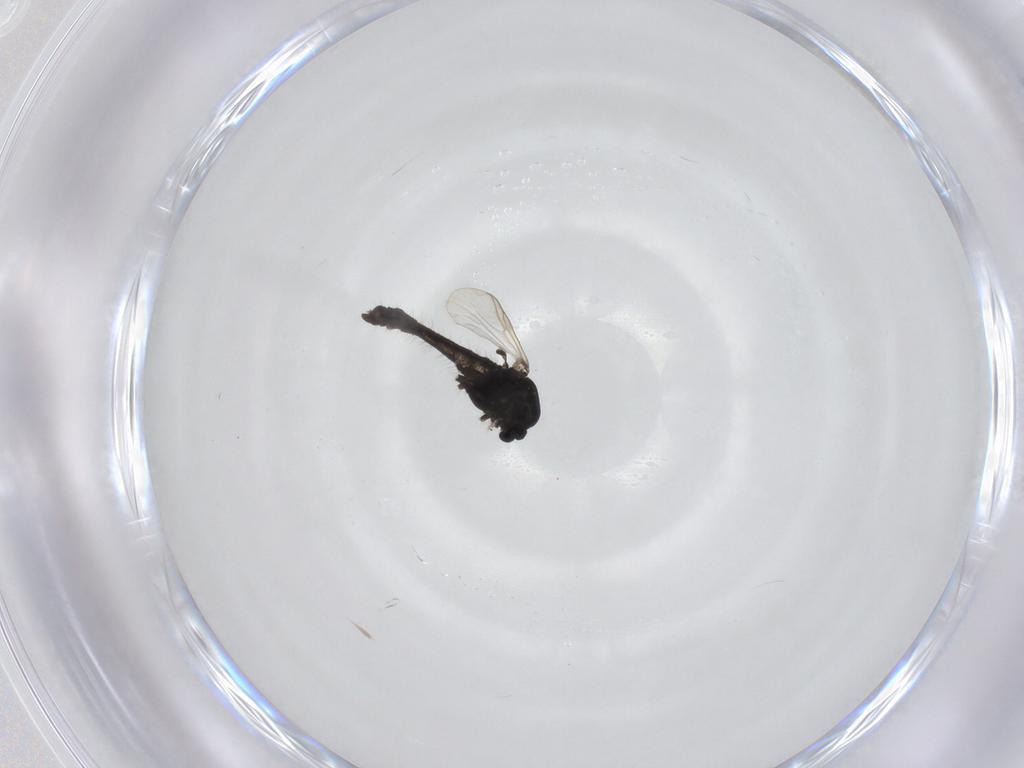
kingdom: Animalia
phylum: Arthropoda
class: Insecta
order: Diptera
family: Chironomidae
